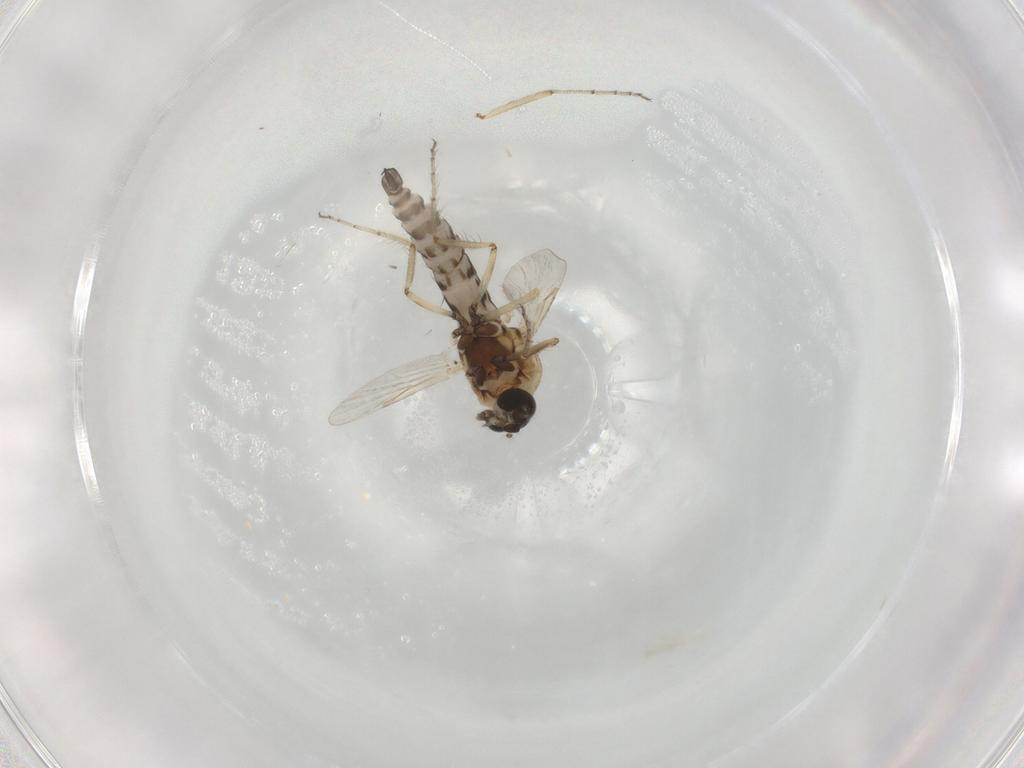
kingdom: Animalia
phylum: Arthropoda
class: Insecta
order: Diptera
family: Ceratopogonidae
